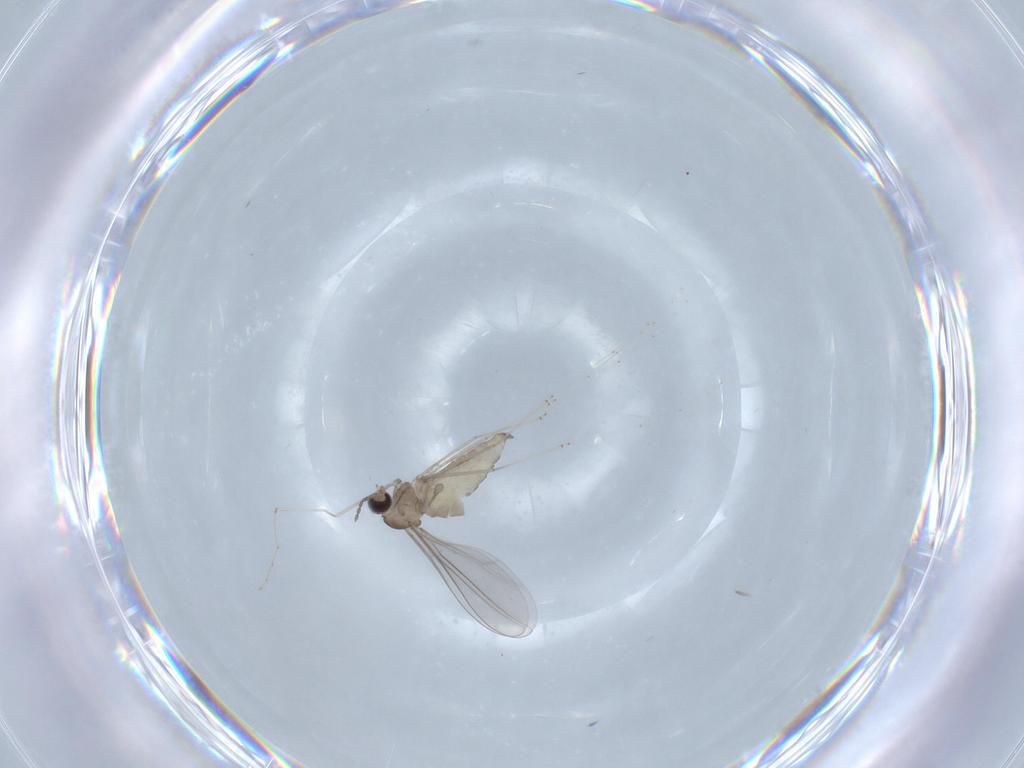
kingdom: Animalia
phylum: Arthropoda
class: Insecta
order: Diptera
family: Cecidomyiidae
